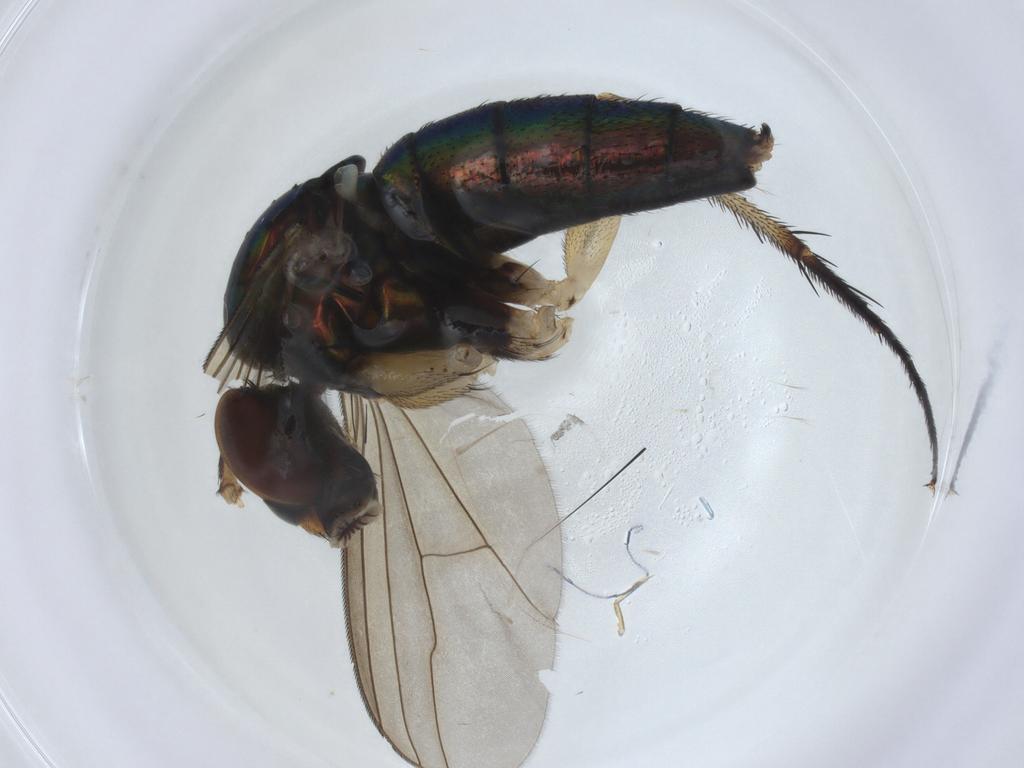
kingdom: Animalia
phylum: Arthropoda
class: Insecta
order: Diptera
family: Dolichopodidae
